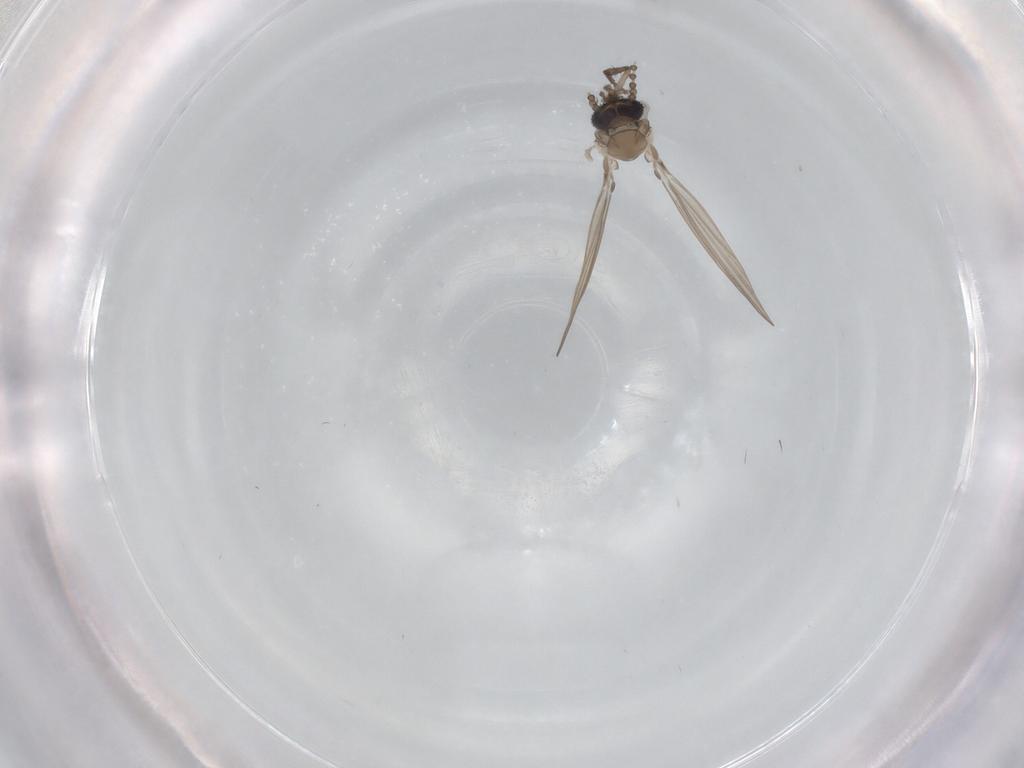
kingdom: Animalia
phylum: Arthropoda
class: Insecta
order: Diptera
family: Psychodidae
